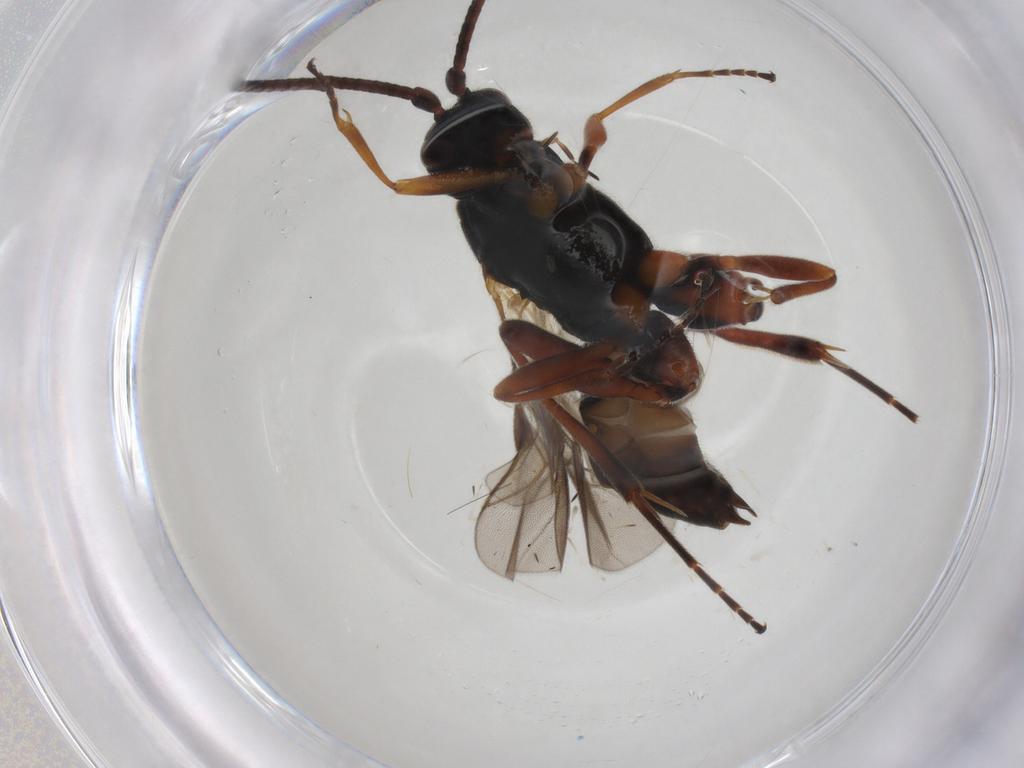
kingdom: Animalia
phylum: Arthropoda
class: Insecta
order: Hymenoptera
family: Braconidae
